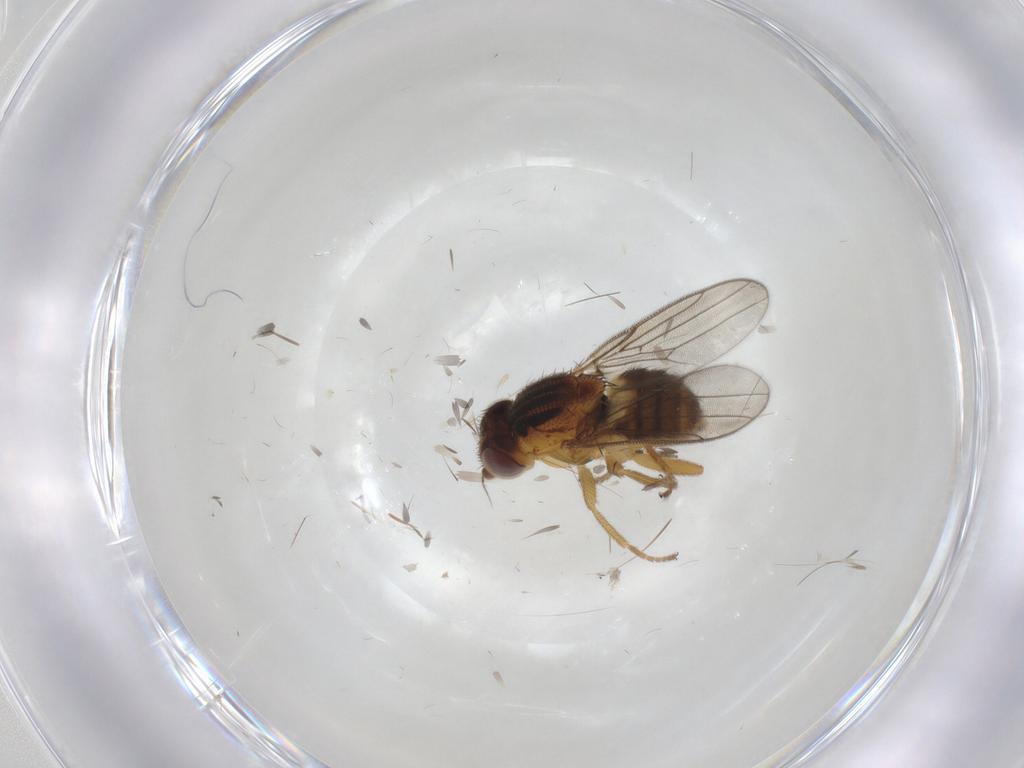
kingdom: Animalia
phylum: Arthropoda
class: Insecta
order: Diptera
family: Chloropidae
